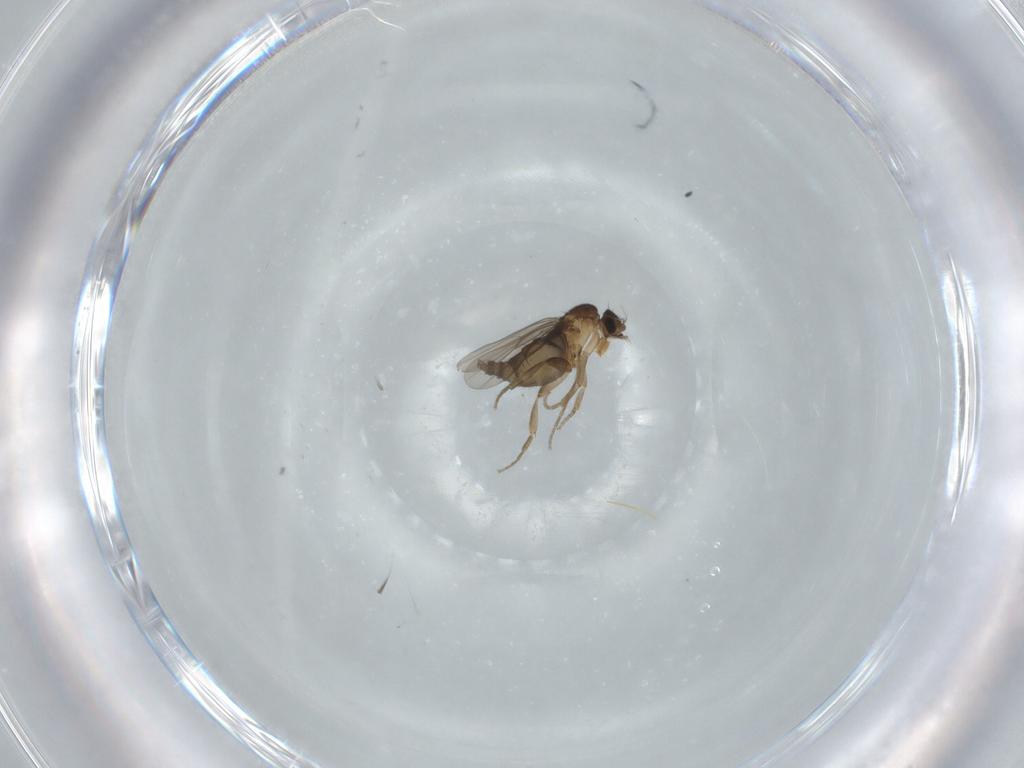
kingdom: Animalia
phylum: Arthropoda
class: Insecta
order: Diptera
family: Phoridae
